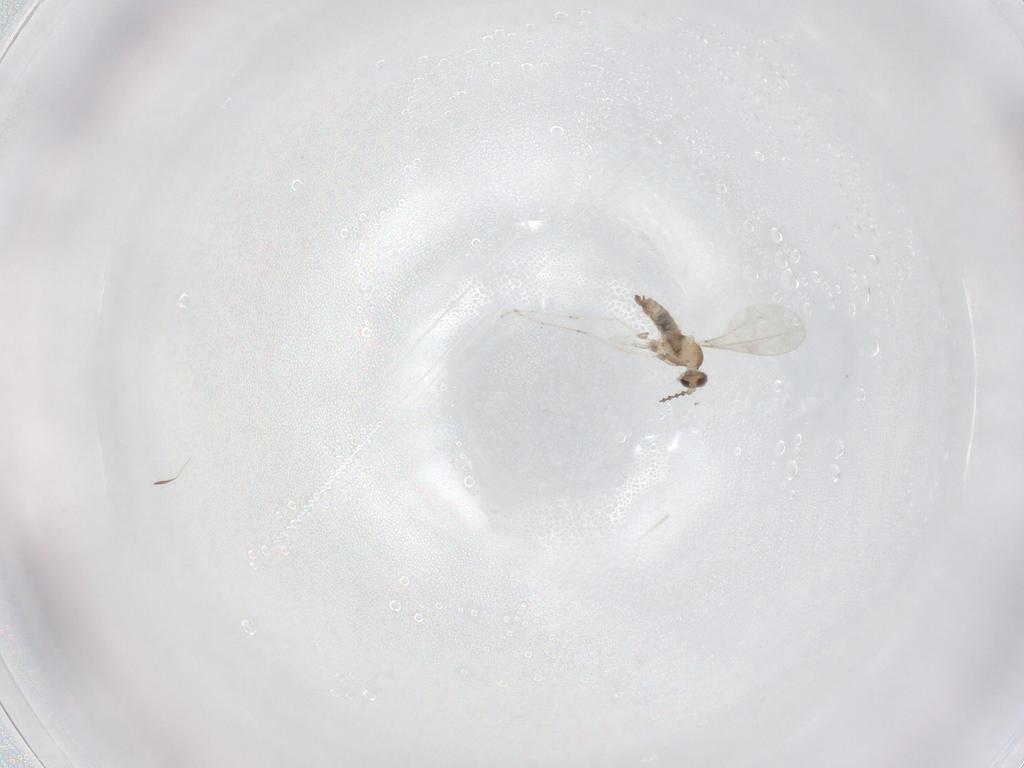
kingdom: Animalia
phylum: Arthropoda
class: Insecta
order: Diptera
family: Cecidomyiidae
